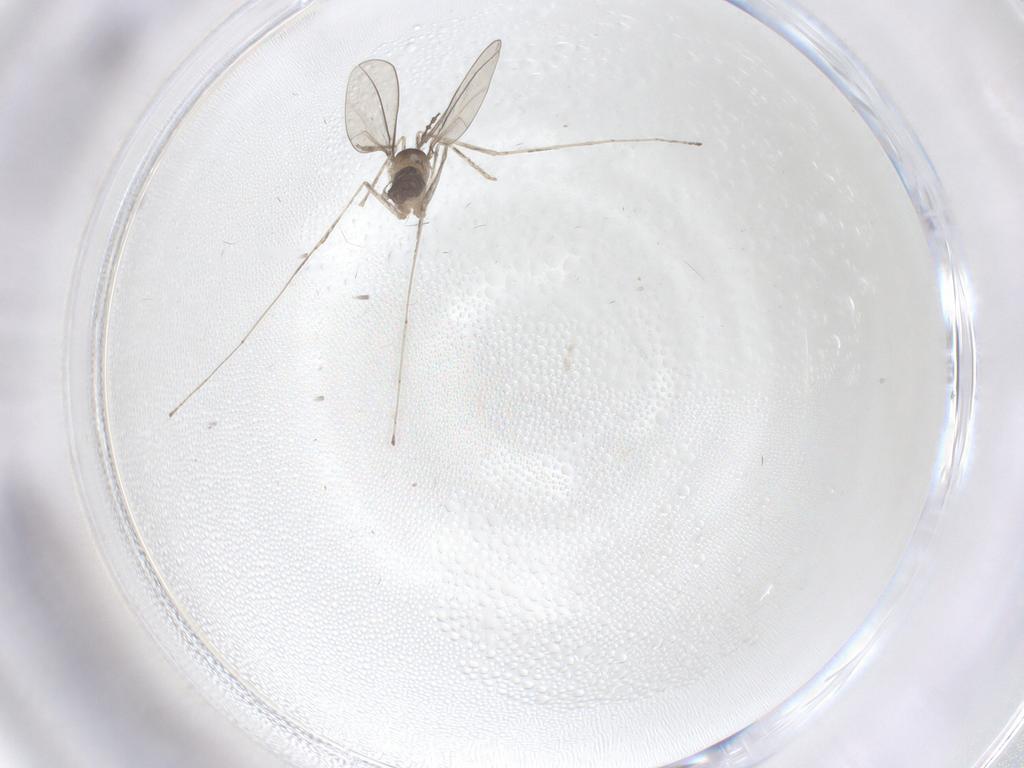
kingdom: Animalia
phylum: Arthropoda
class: Insecta
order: Diptera
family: Cecidomyiidae
